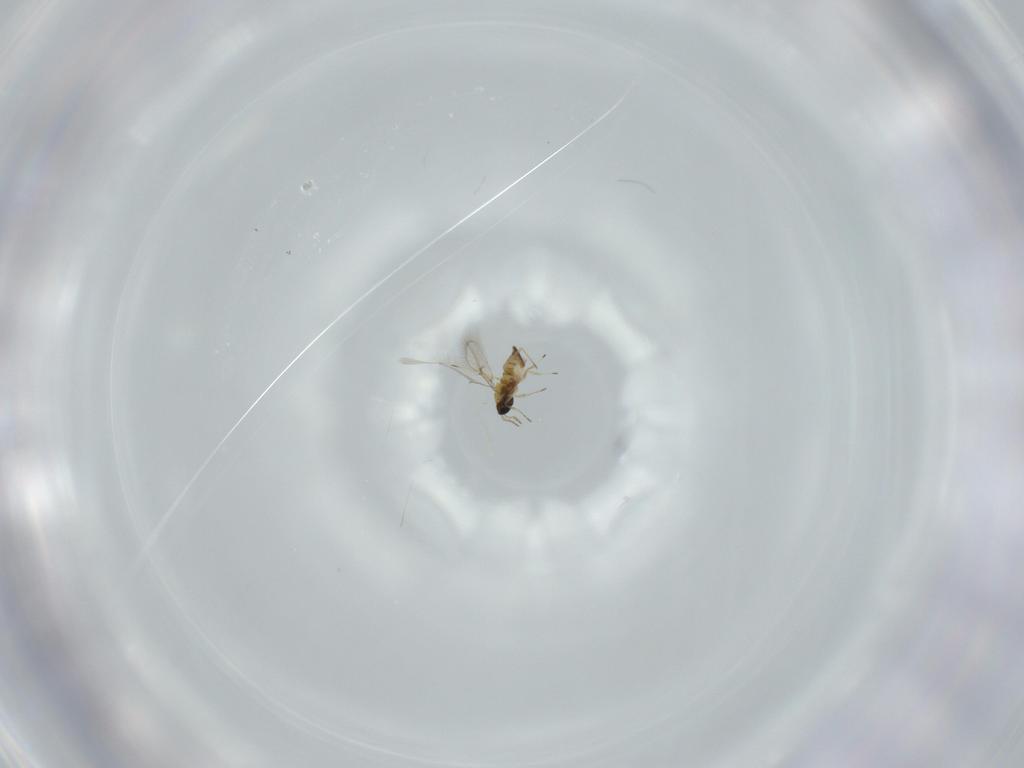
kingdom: Animalia
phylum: Arthropoda
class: Insecta
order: Hymenoptera
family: Trichogrammatidae
